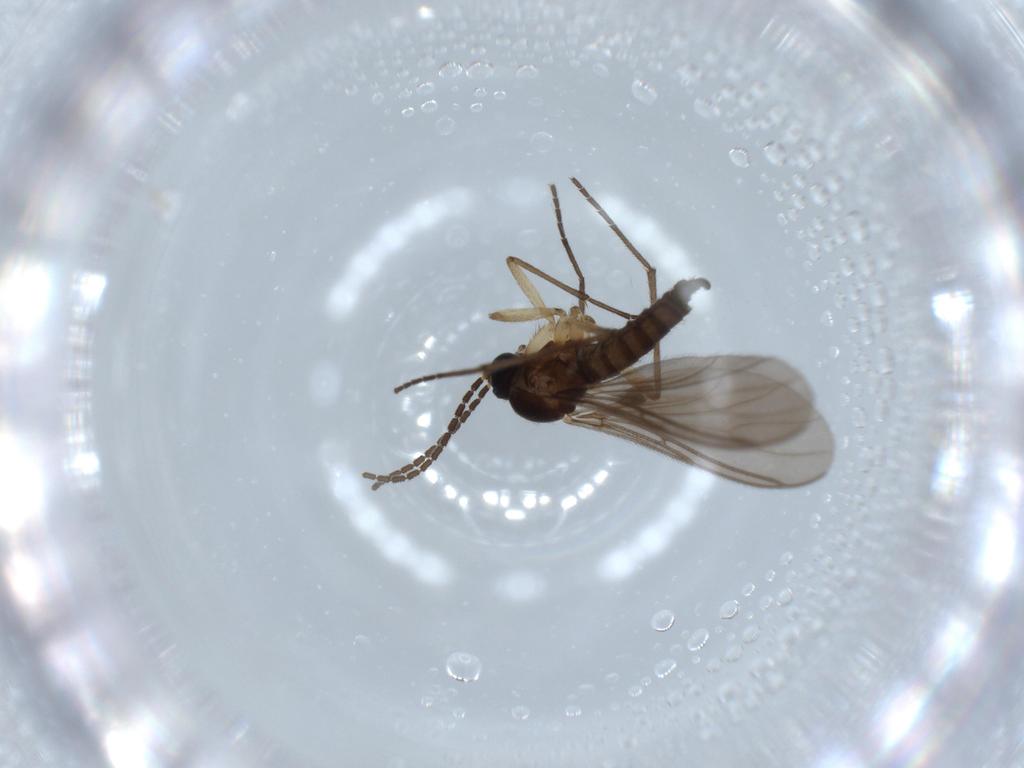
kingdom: Animalia
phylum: Arthropoda
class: Insecta
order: Diptera
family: Sciaridae
